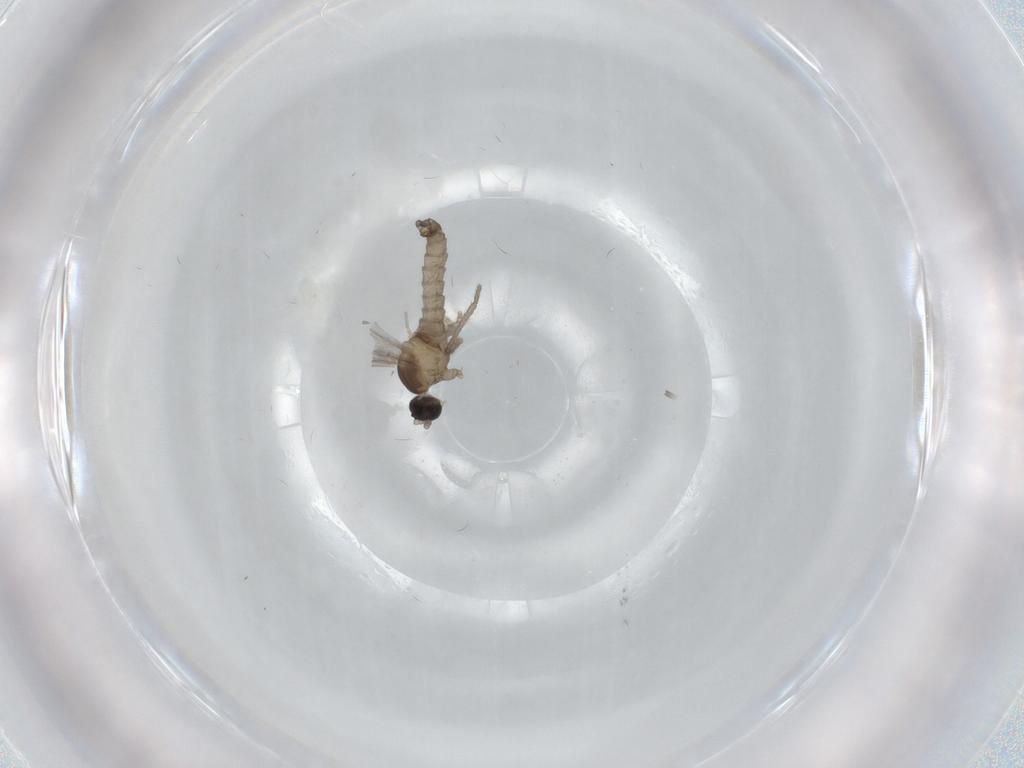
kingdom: Animalia
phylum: Arthropoda
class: Insecta
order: Diptera
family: Cecidomyiidae
